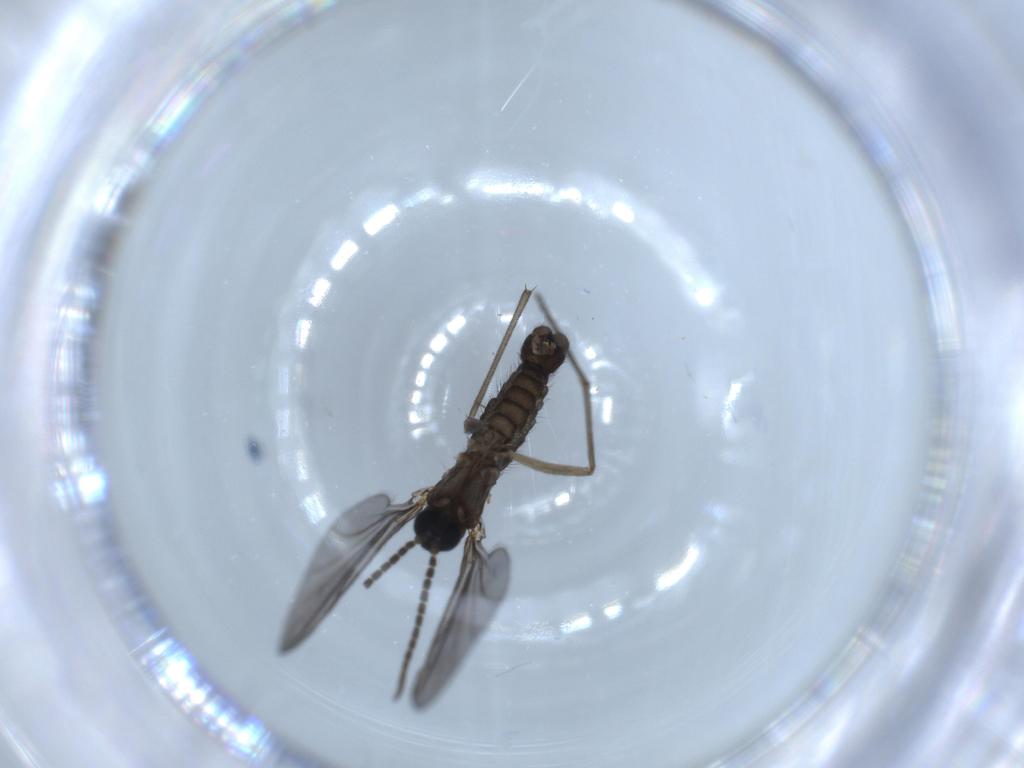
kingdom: Animalia
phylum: Arthropoda
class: Insecta
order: Diptera
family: Sciaridae
